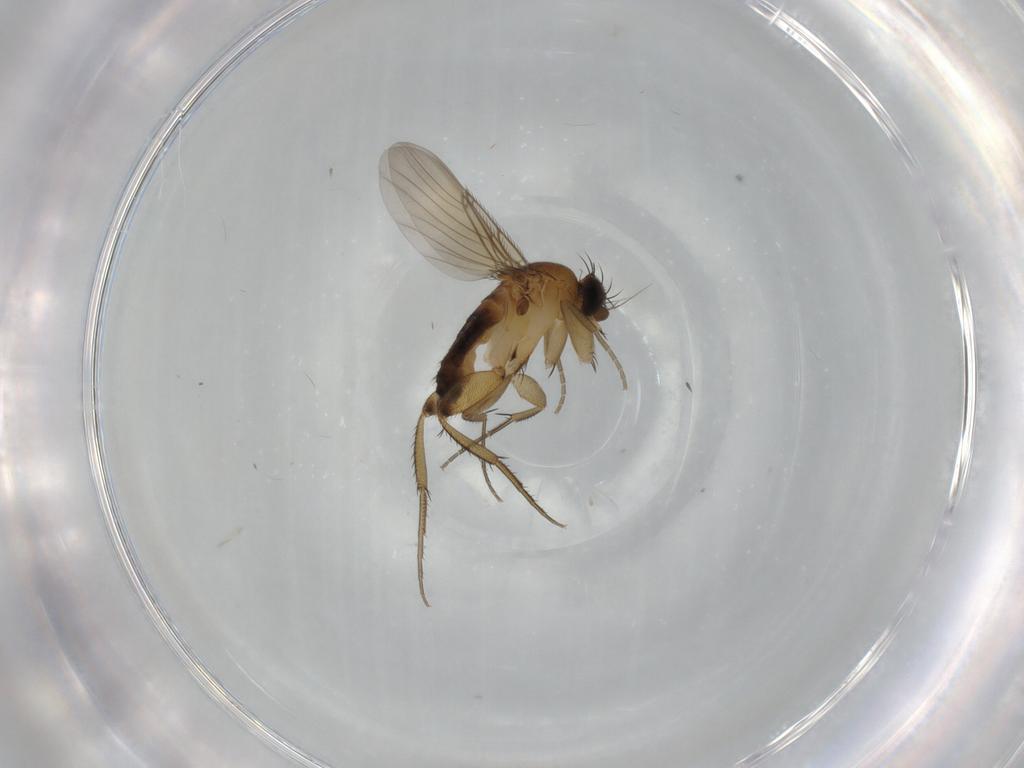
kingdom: Animalia
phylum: Arthropoda
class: Insecta
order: Diptera
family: Phoridae
